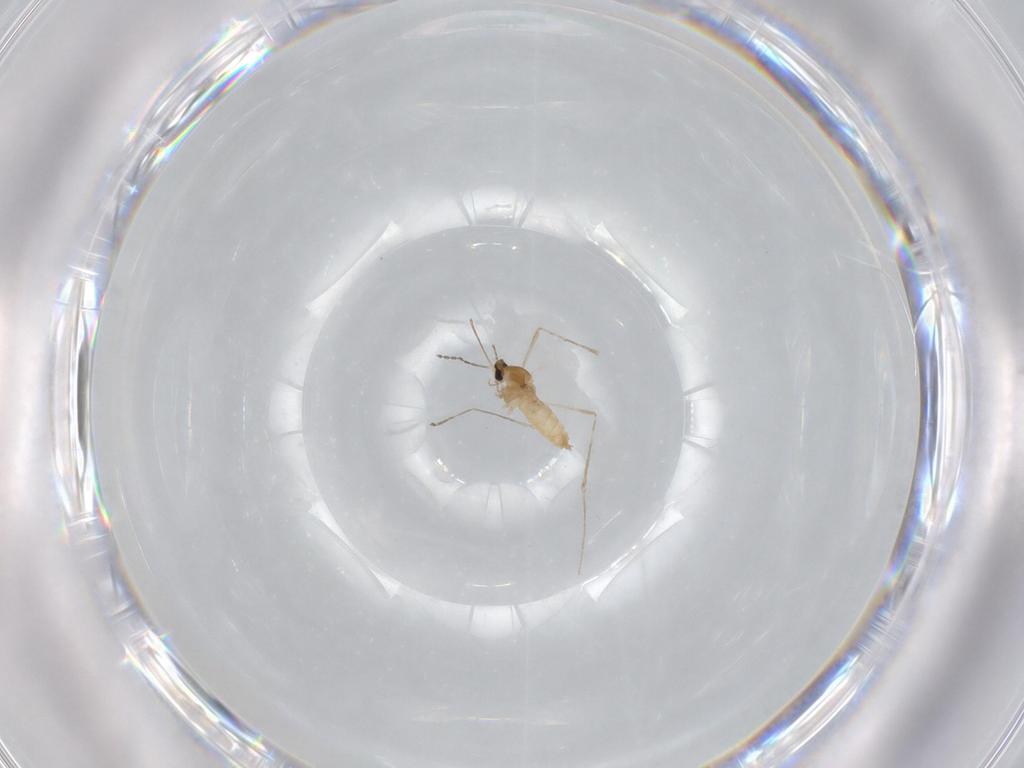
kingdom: Animalia
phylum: Arthropoda
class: Insecta
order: Diptera
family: Cecidomyiidae
